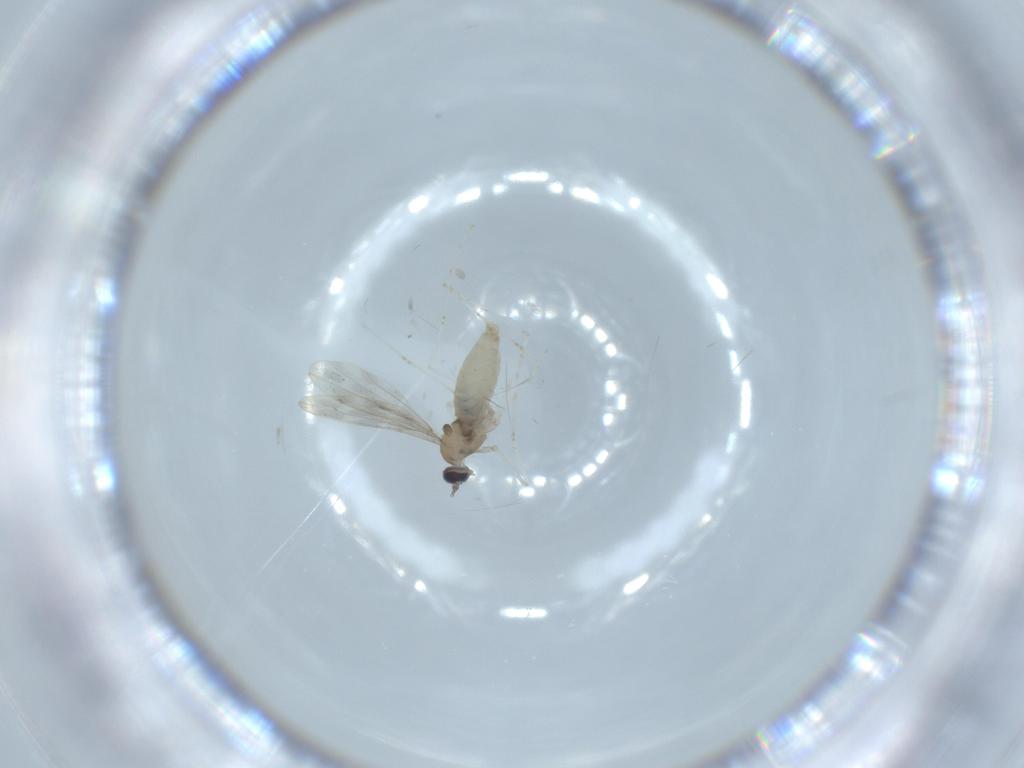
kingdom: Animalia
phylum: Arthropoda
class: Insecta
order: Diptera
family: Cecidomyiidae
